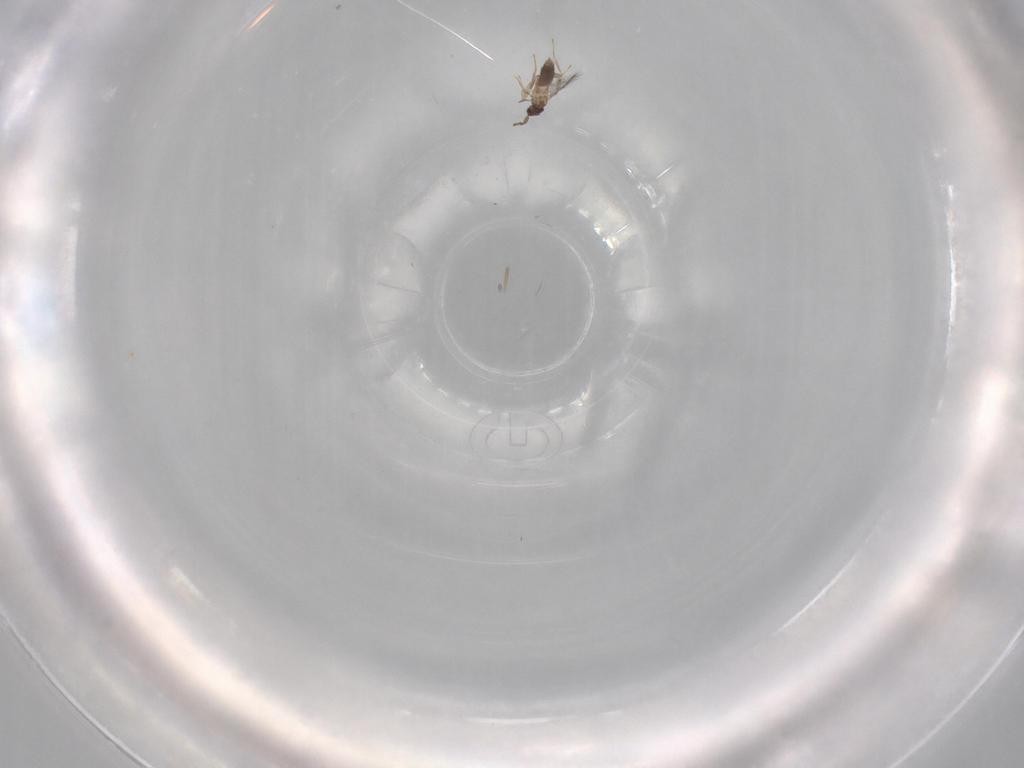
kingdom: Animalia
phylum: Arthropoda
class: Insecta
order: Hymenoptera
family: Mymaridae
